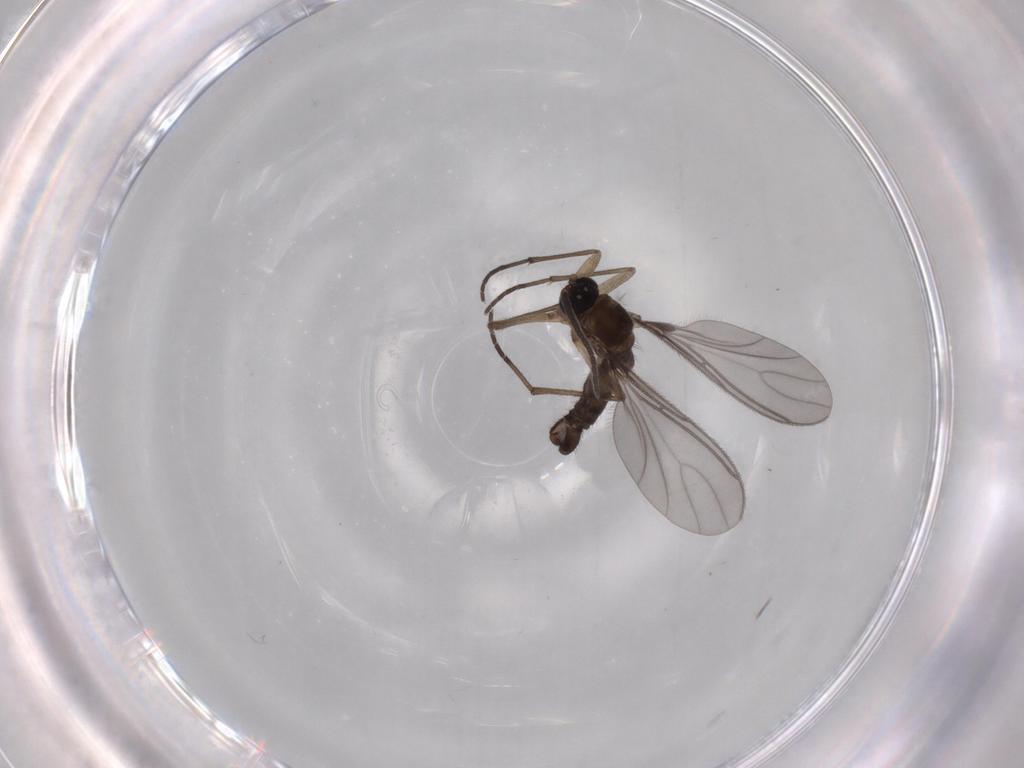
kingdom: Animalia
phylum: Arthropoda
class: Insecta
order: Diptera
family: Sciaridae
